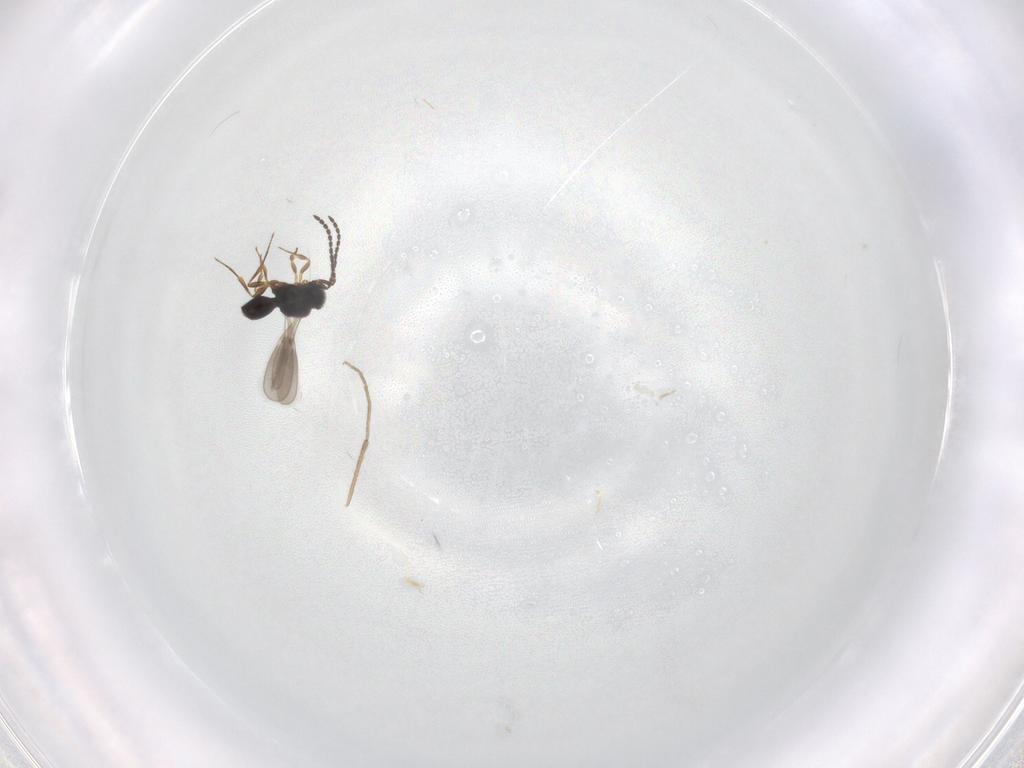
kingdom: Animalia
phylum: Arthropoda
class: Insecta
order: Hymenoptera
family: Scelionidae
